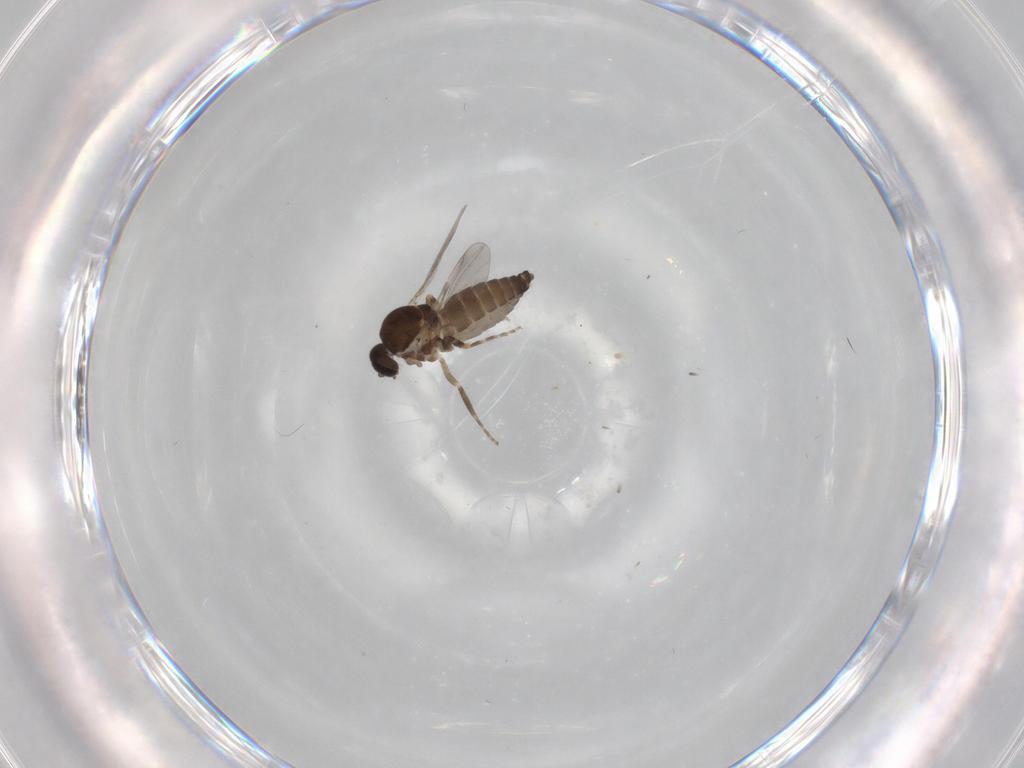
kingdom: Animalia
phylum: Arthropoda
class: Insecta
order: Diptera
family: Ceratopogonidae
